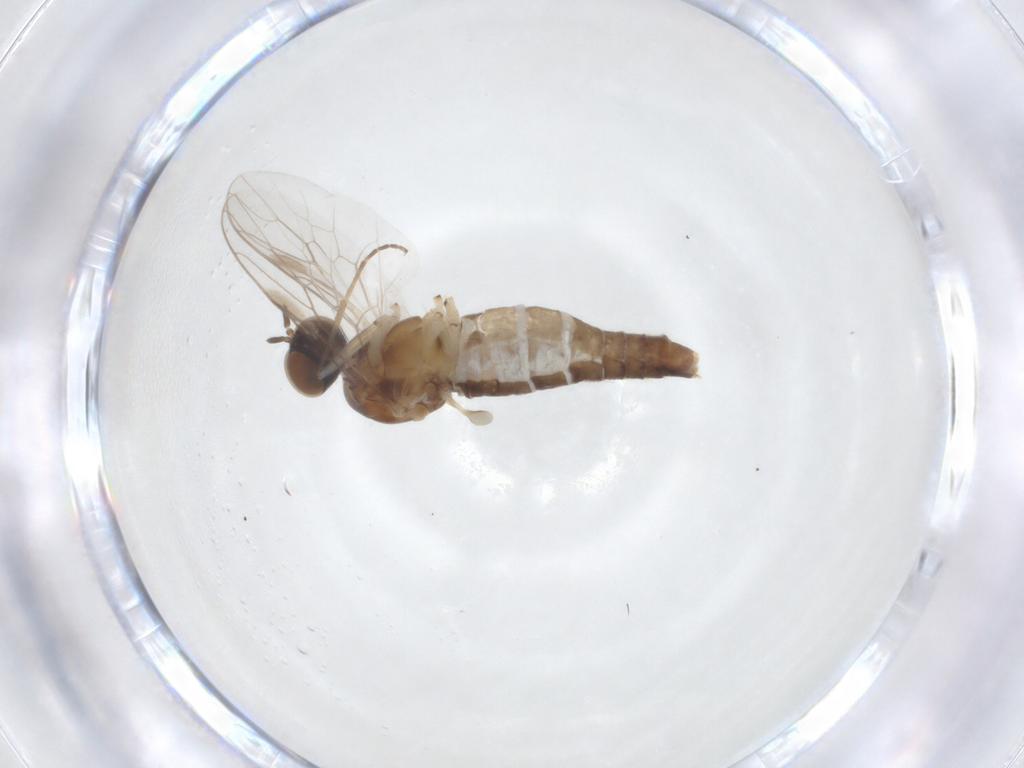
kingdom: Animalia
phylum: Arthropoda
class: Insecta
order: Diptera
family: Scenopinidae
